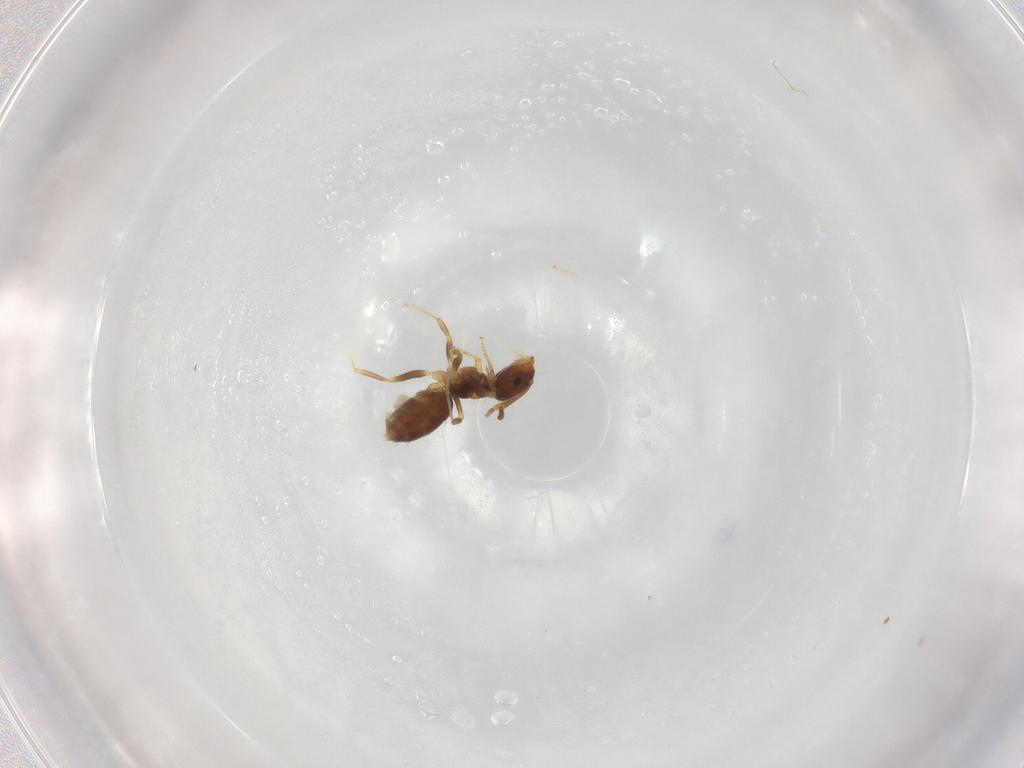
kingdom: Animalia
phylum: Arthropoda
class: Insecta
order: Hymenoptera
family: Formicidae
